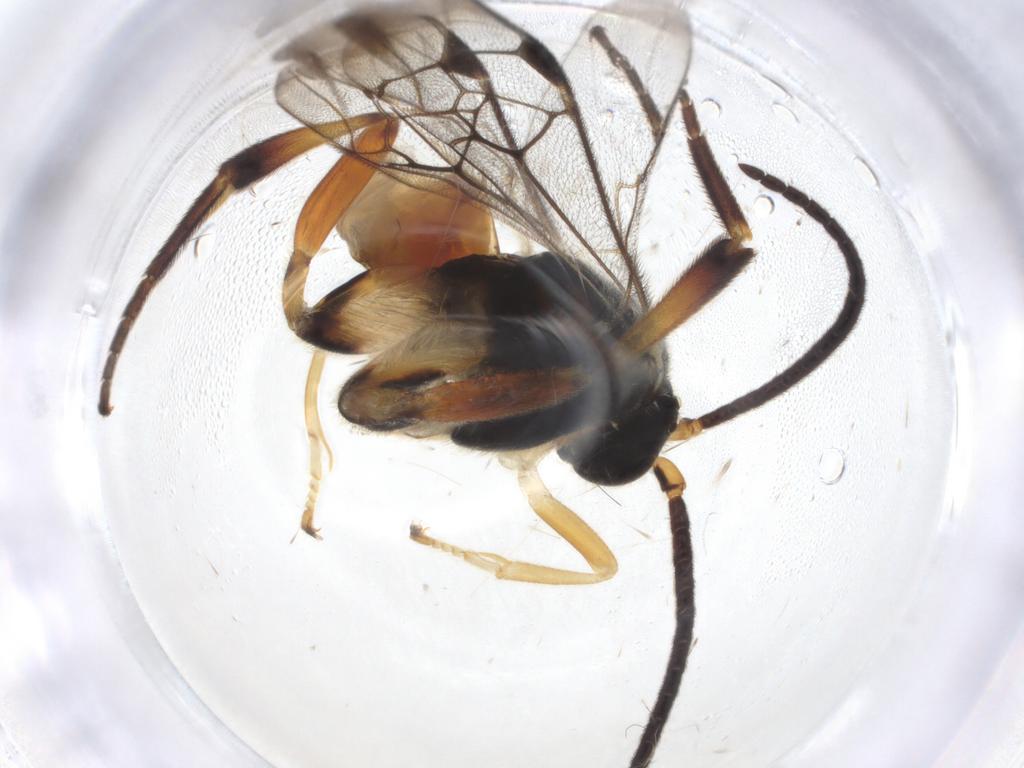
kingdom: Animalia
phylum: Arthropoda
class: Insecta
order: Hymenoptera
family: Braconidae
